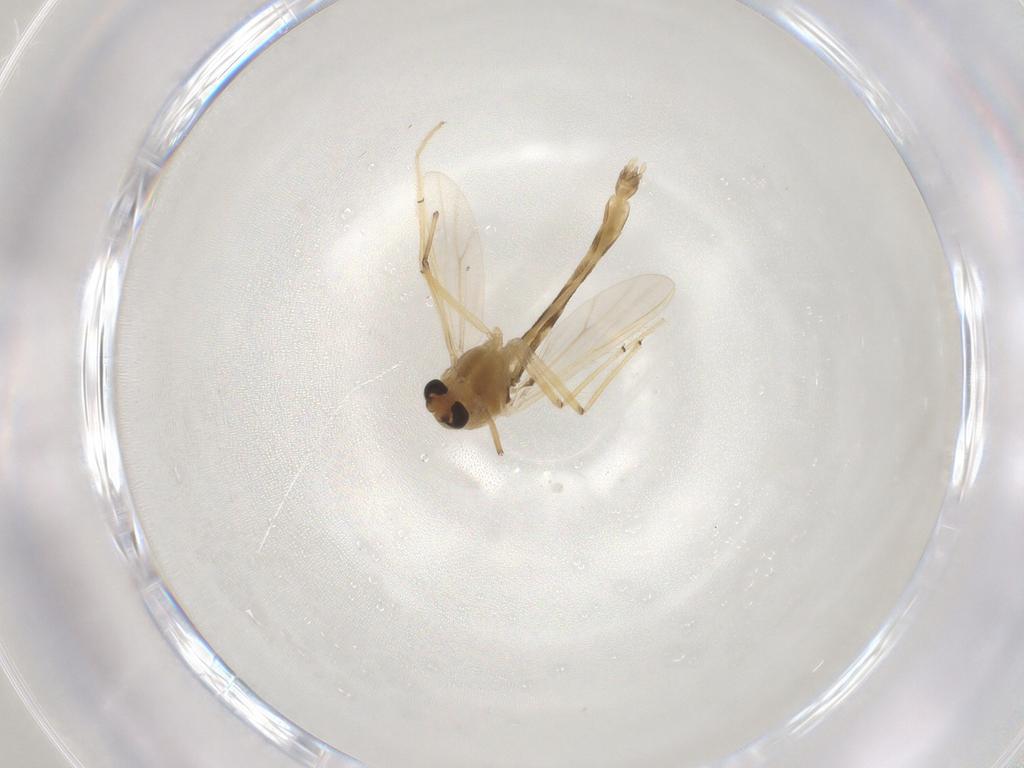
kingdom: Animalia
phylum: Arthropoda
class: Insecta
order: Diptera
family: Chironomidae
